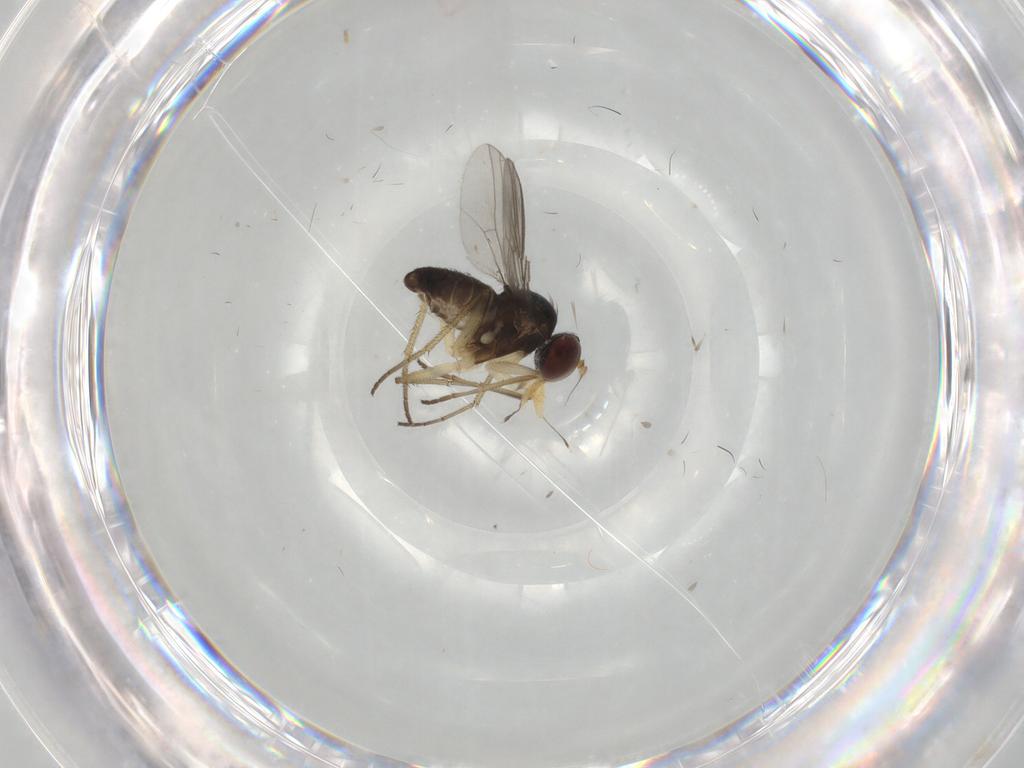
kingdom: Animalia
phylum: Arthropoda
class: Insecta
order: Diptera
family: Dolichopodidae
